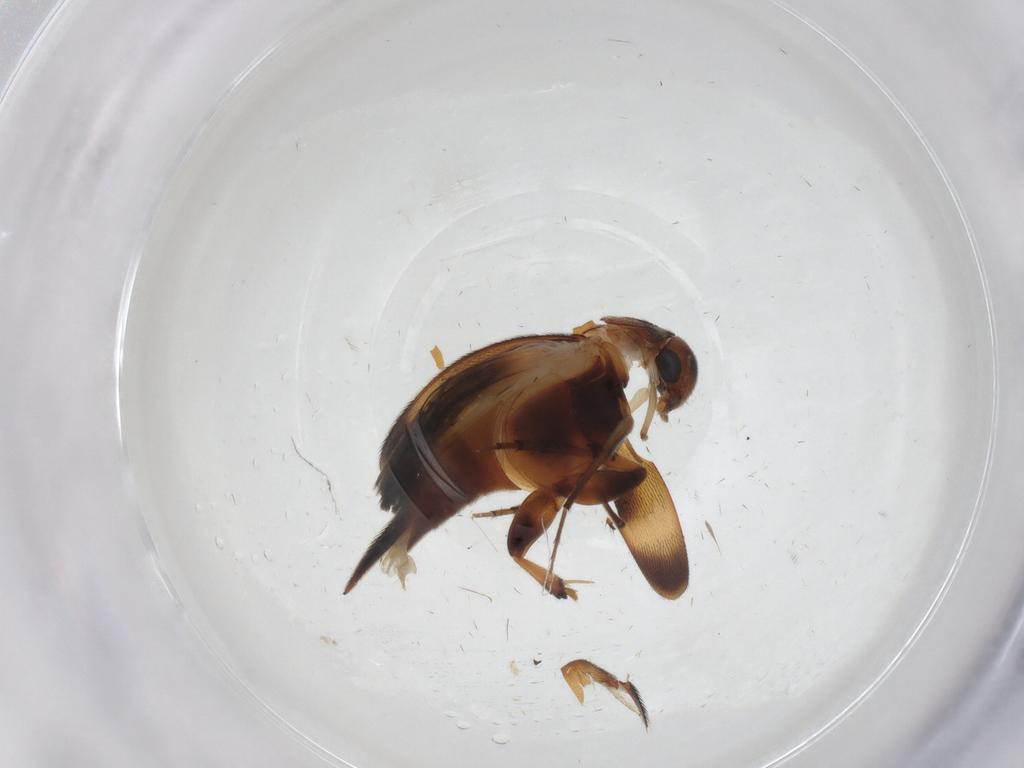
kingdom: Animalia
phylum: Arthropoda
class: Insecta
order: Coleoptera
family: Mordellidae
